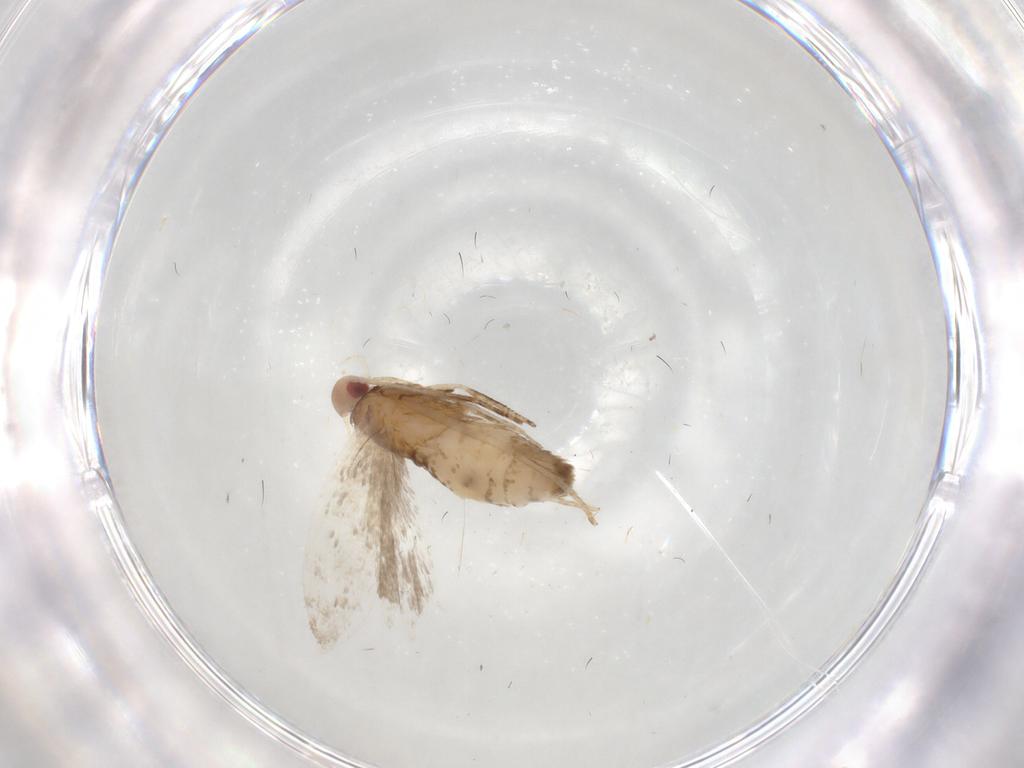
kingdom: Animalia
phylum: Arthropoda
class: Insecta
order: Lepidoptera
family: Gelechiidae
